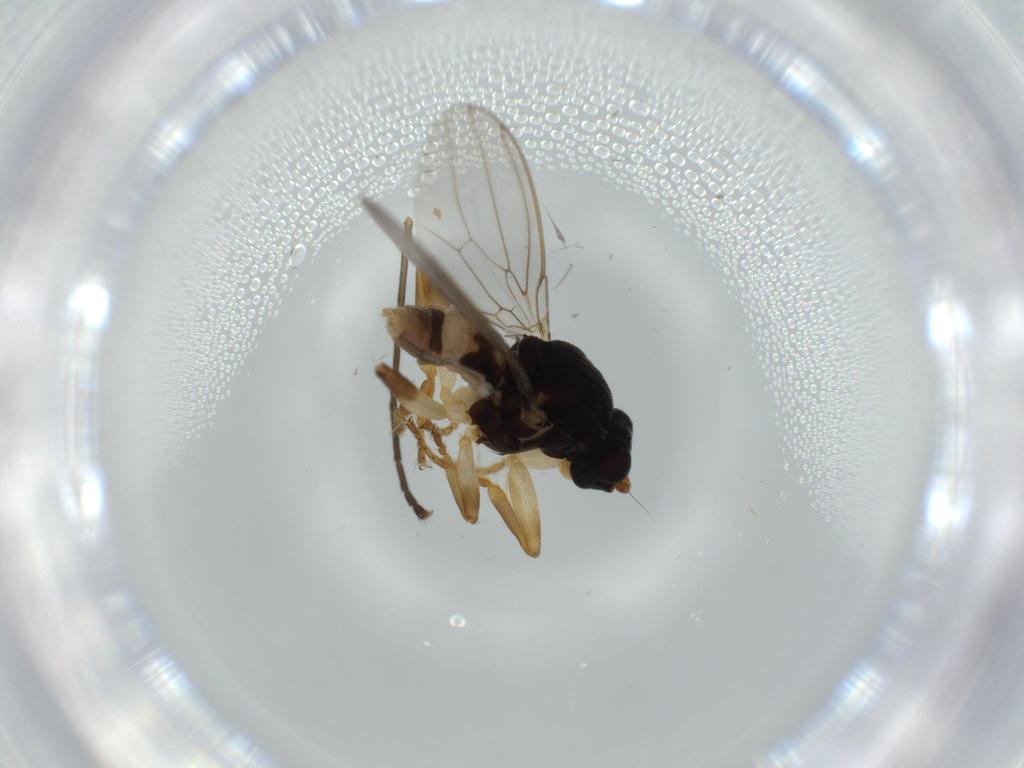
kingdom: Animalia
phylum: Arthropoda
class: Insecta
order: Diptera
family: Sphaeroceridae
